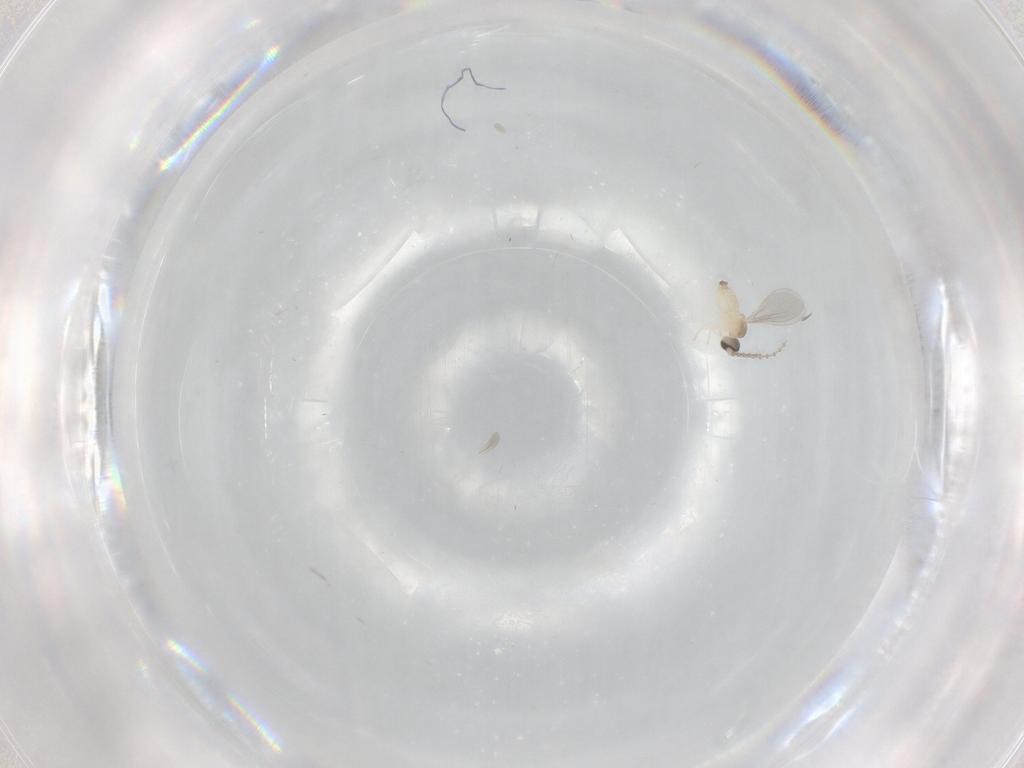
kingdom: Animalia
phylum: Arthropoda
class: Insecta
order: Diptera
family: Cecidomyiidae
